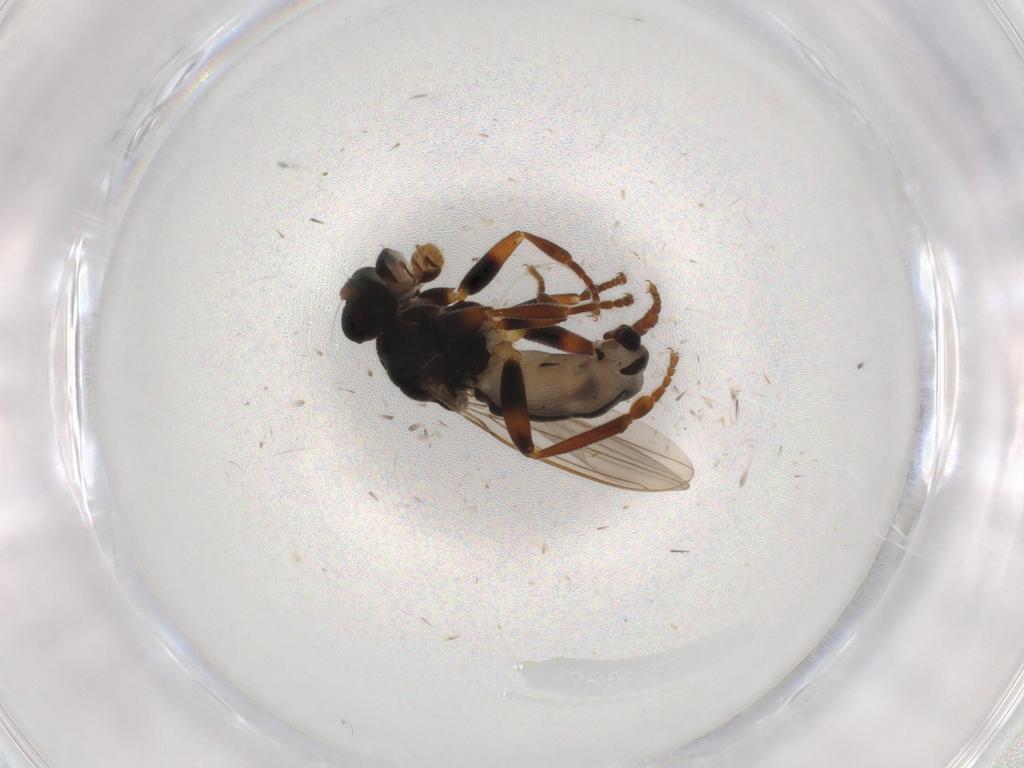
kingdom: Animalia
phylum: Arthropoda
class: Insecta
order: Diptera
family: Sphaeroceridae
